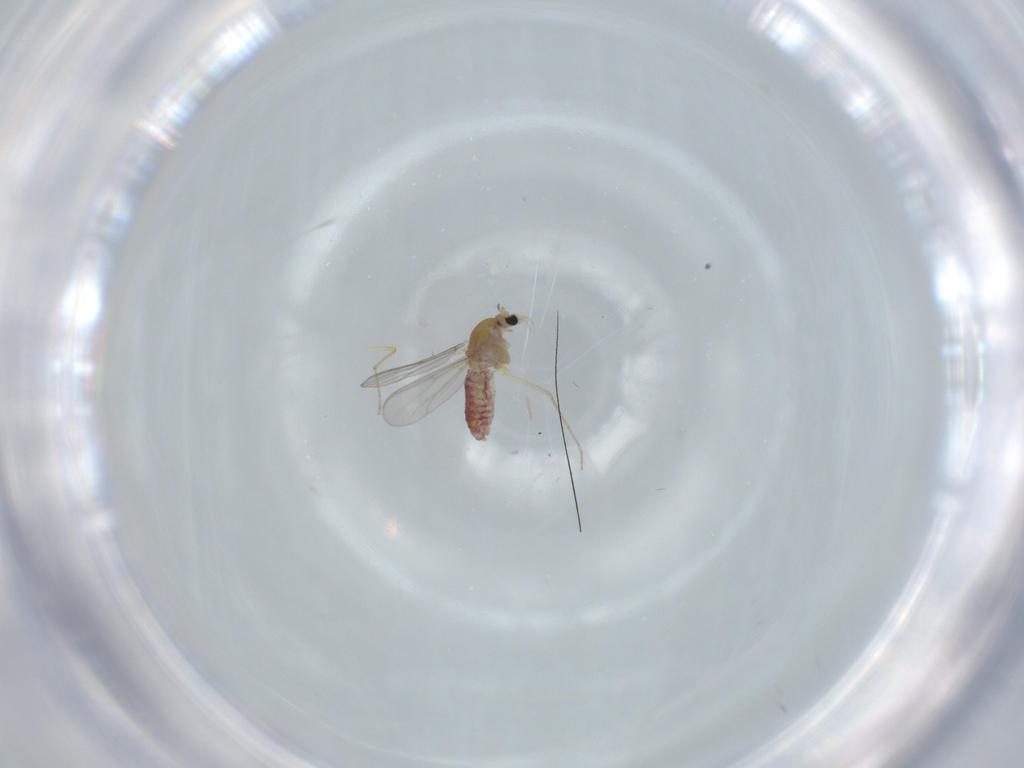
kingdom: Animalia
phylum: Arthropoda
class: Insecta
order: Diptera
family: Chironomidae
